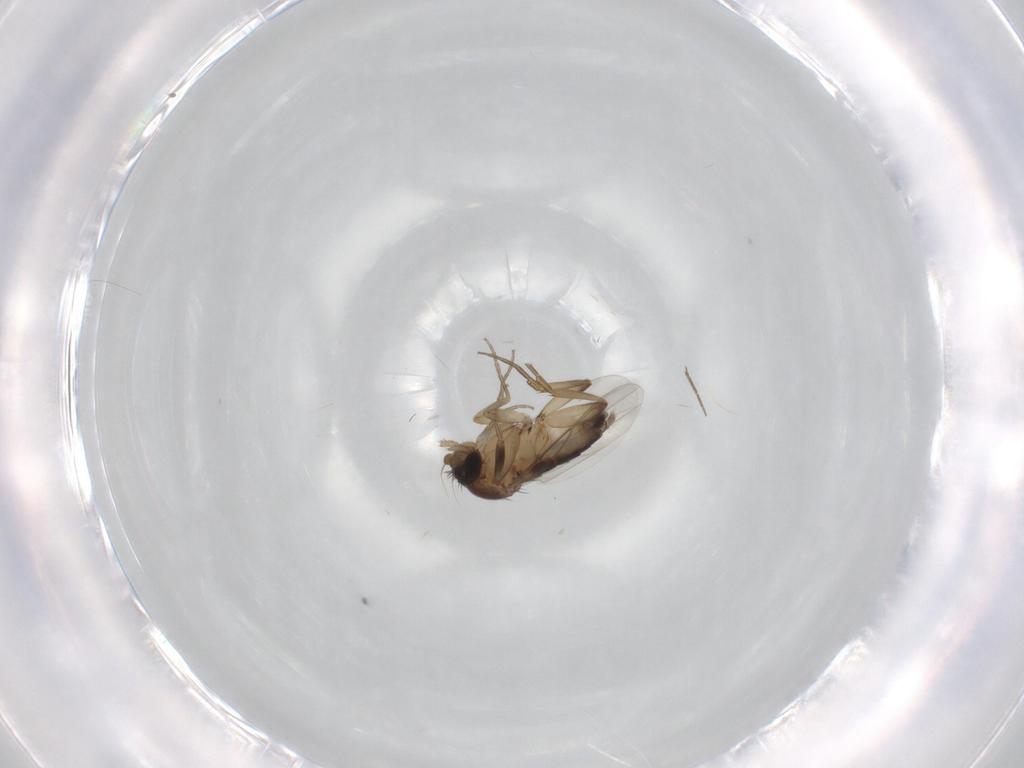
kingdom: Animalia
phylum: Arthropoda
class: Insecta
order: Diptera
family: Phoridae
